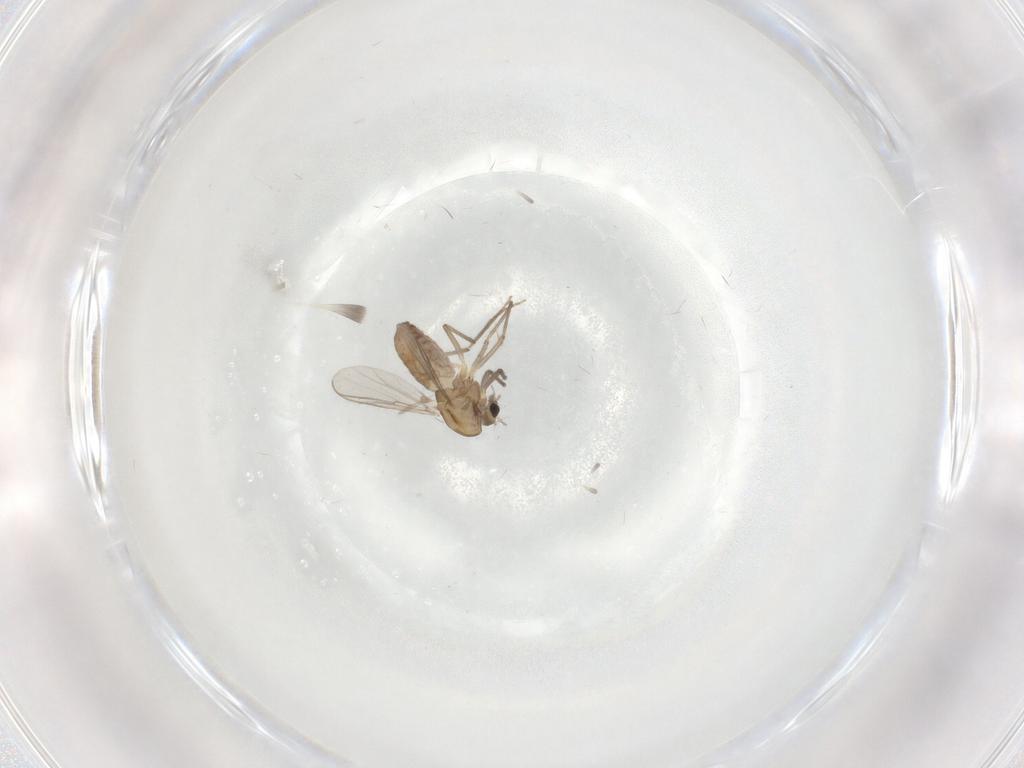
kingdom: Animalia
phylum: Arthropoda
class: Insecta
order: Diptera
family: Chironomidae
